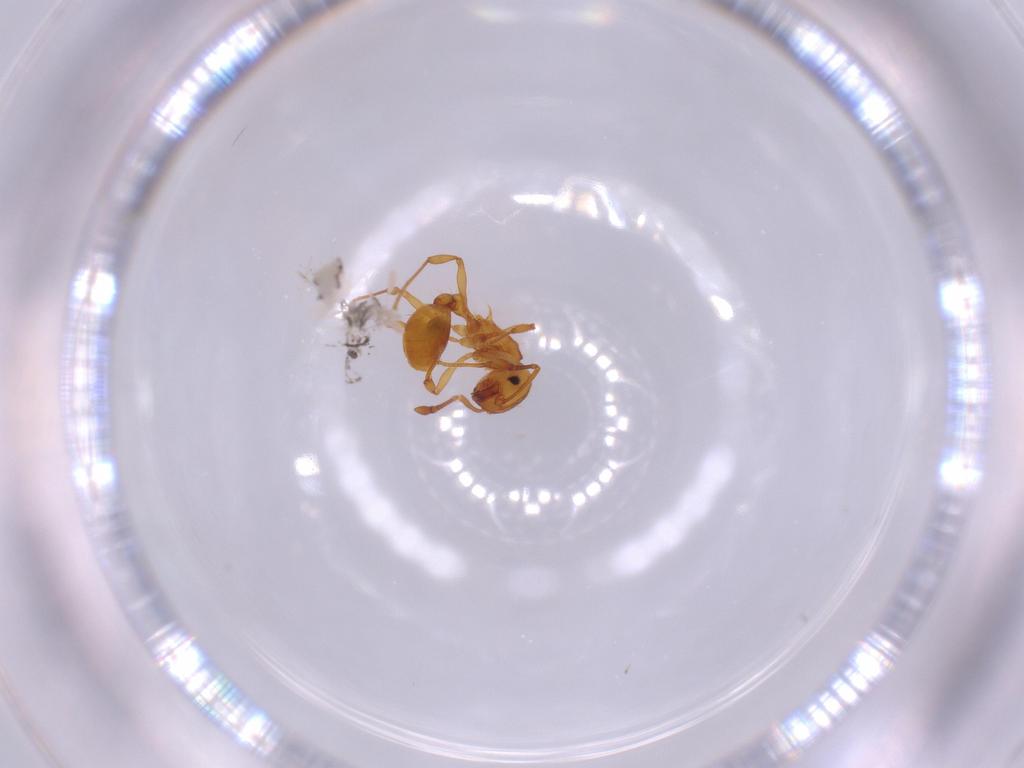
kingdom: Animalia
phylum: Arthropoda
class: Insecta
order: Hymenoptera
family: Formicidae
